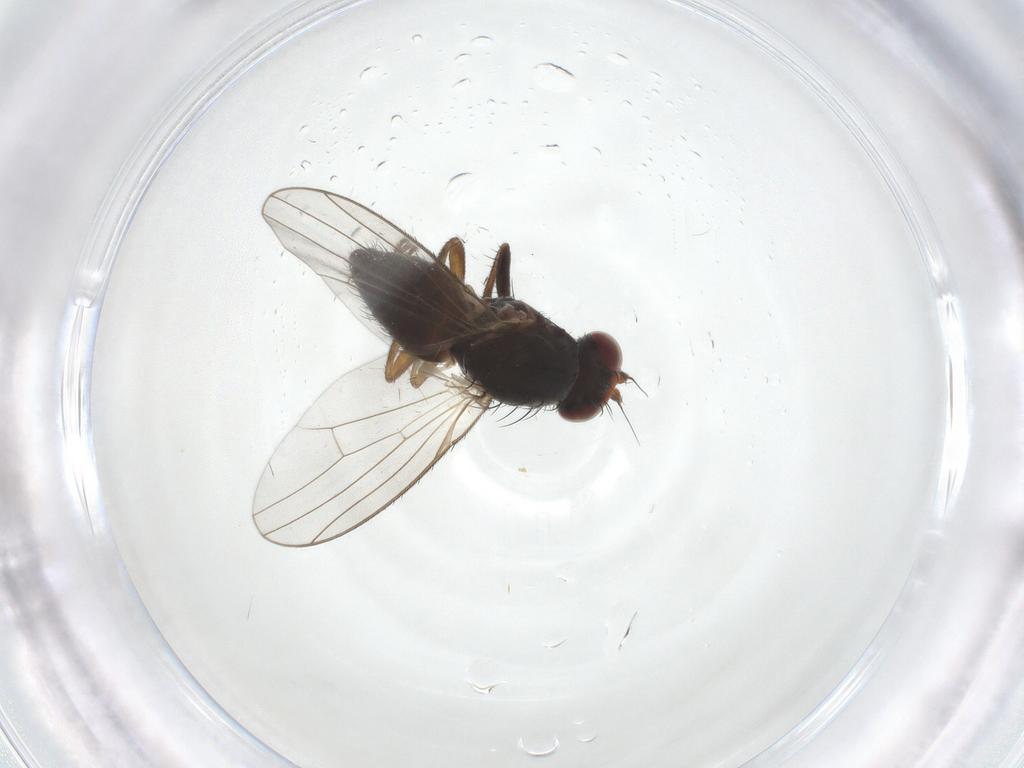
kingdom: Animalia
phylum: Arthropoda
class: Insecta
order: Diptera
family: Heleomyzidae
